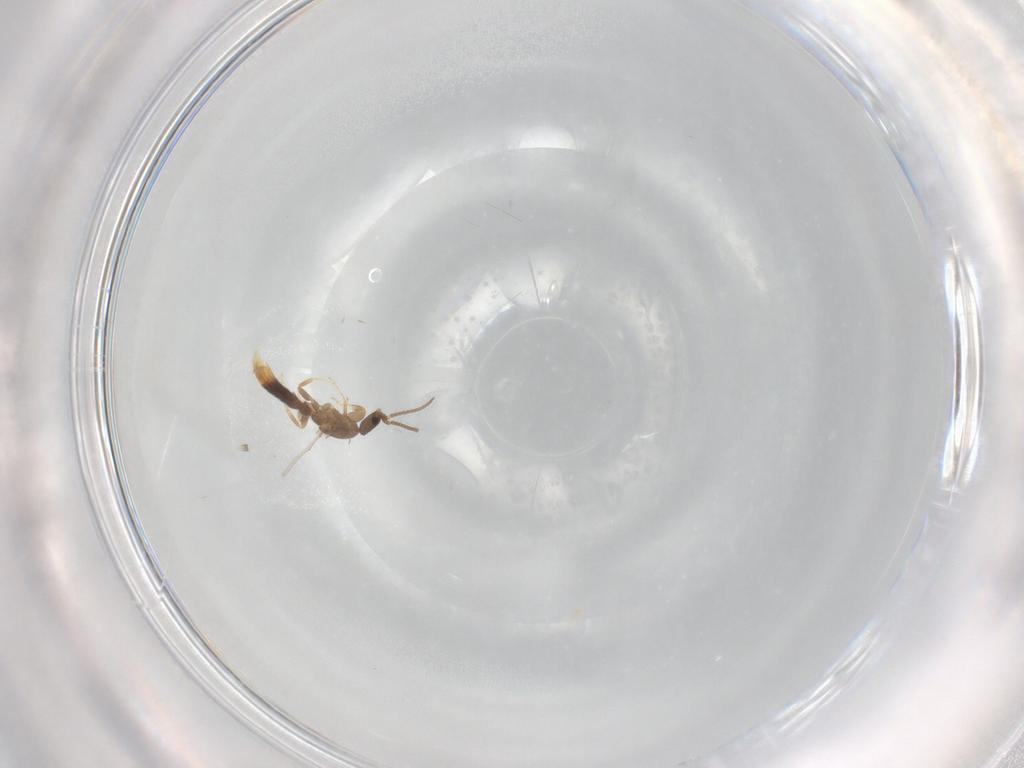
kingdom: Animalia
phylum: Arthropoda
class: Insecta
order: Hymenoptera
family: Formicidae
